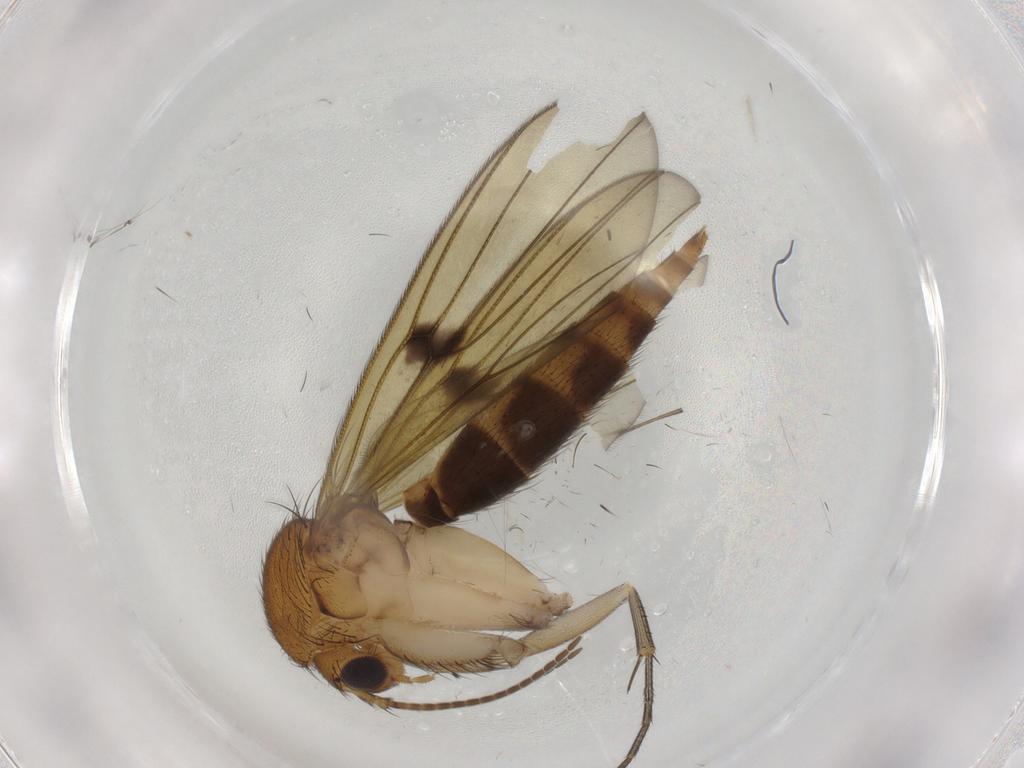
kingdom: Animalia
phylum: Arthropoda
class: Insecta
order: Diptera
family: Mycetophilidae
